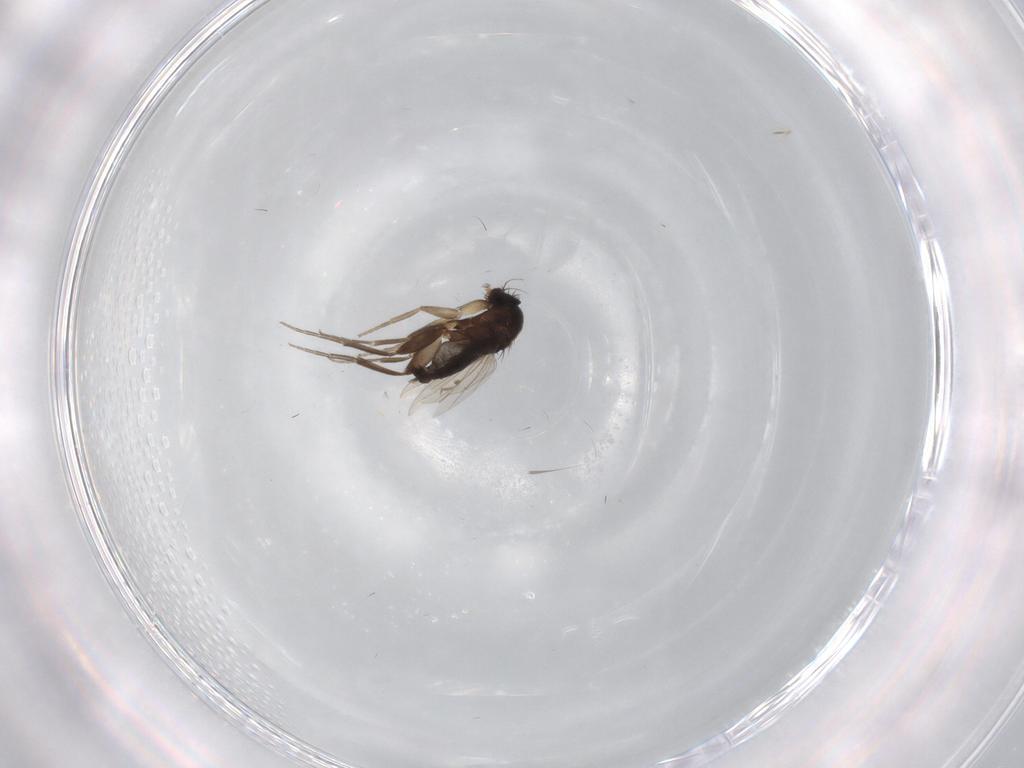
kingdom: Animalia
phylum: Arthropoda
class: Insecta
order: Diptera
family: Phoridae
